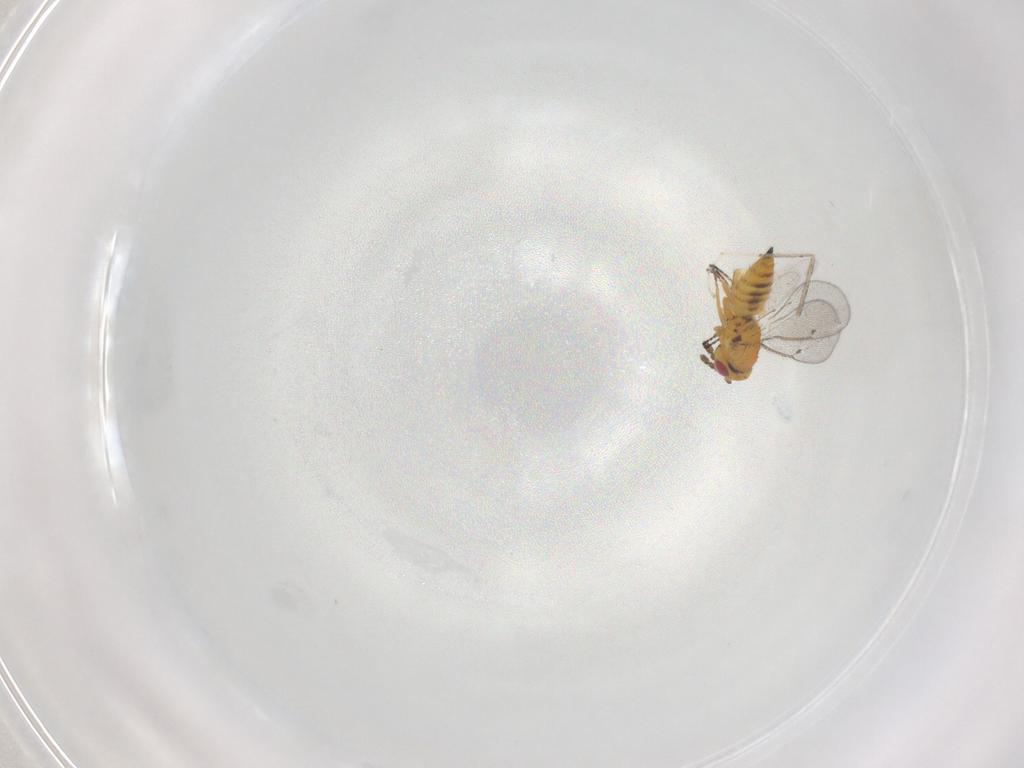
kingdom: Animalia
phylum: Arthropoda
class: Insecta
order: Hymenoptera
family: Eulophidae
